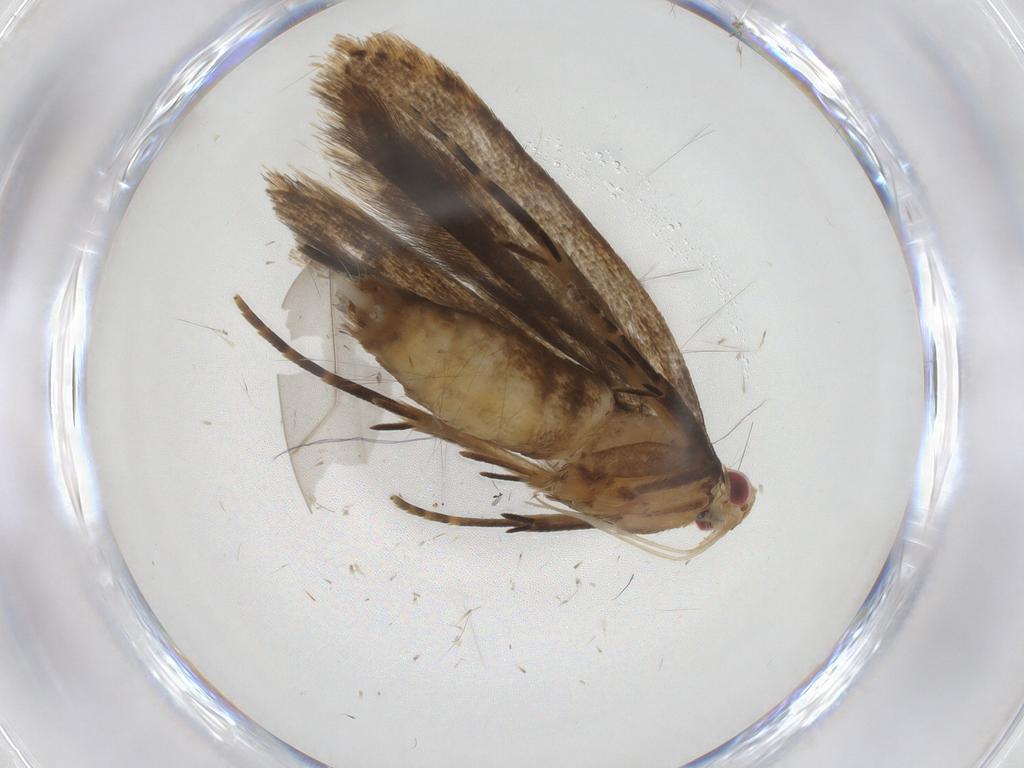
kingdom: Animalia
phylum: Arthropoda
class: Insecta
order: Lepidoptera
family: Gelechiidae
